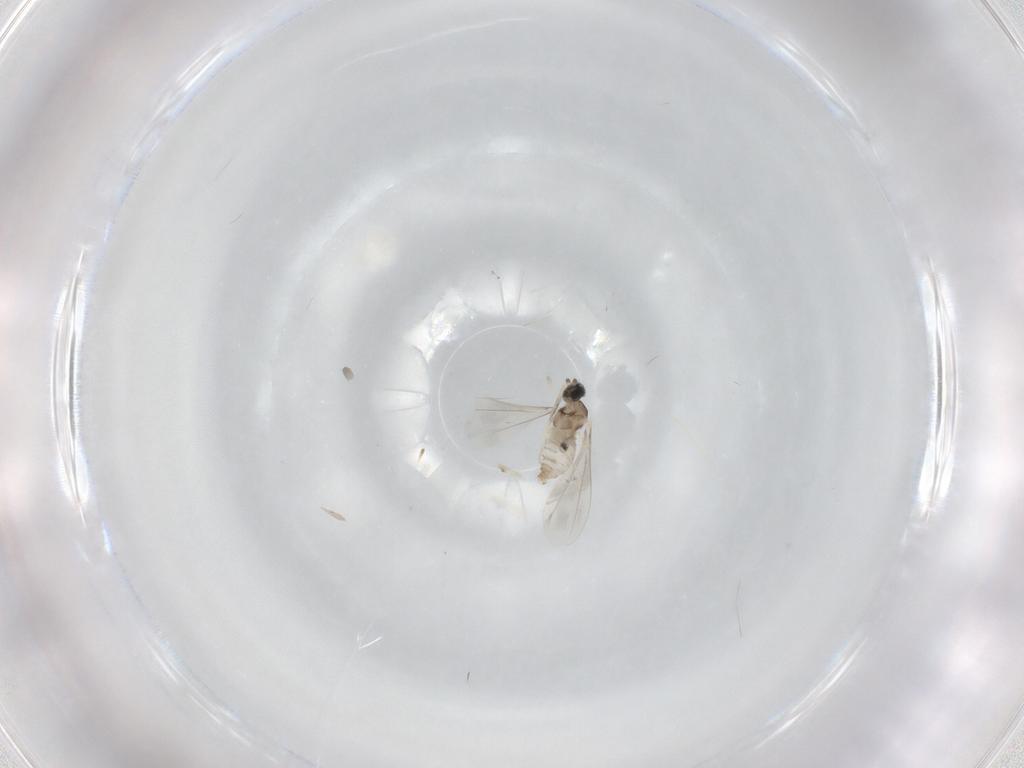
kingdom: Animalia
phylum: Arthropoda
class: Insecta
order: Diptera
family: Cecidomyiidae
